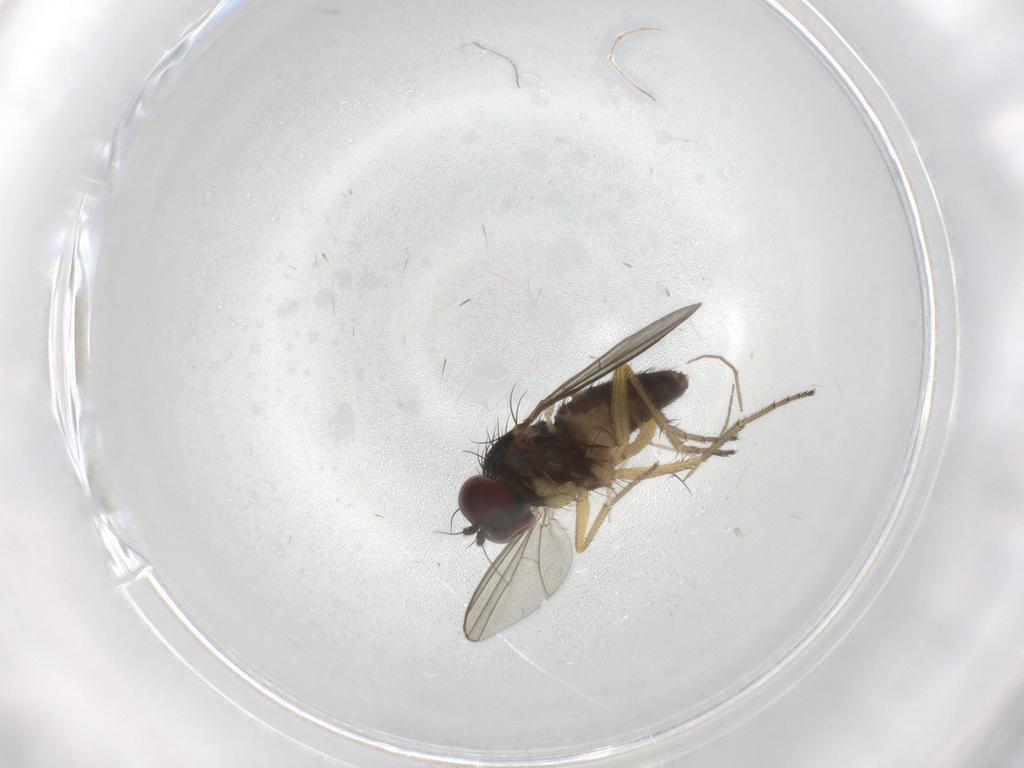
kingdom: Animalia
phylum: Arthropoda
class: Insecta
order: Diptera
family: Dolichopodidae
